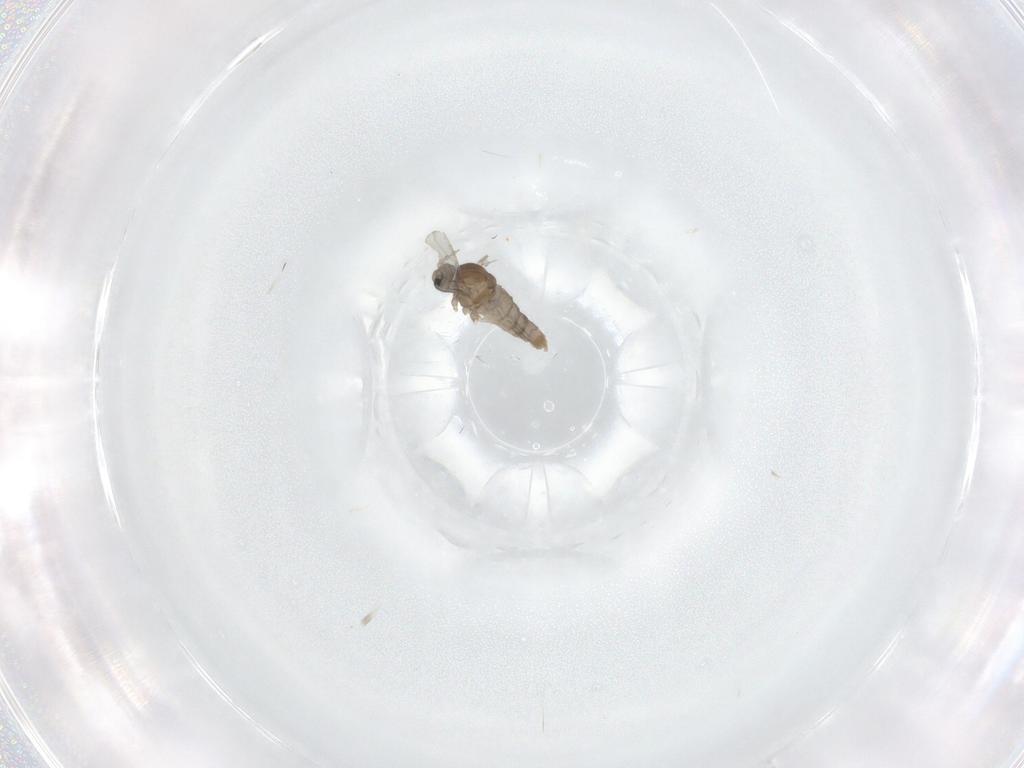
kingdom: Animalia
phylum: Arthropoda
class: Insecta
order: Diptera
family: Cecidomyiidae
